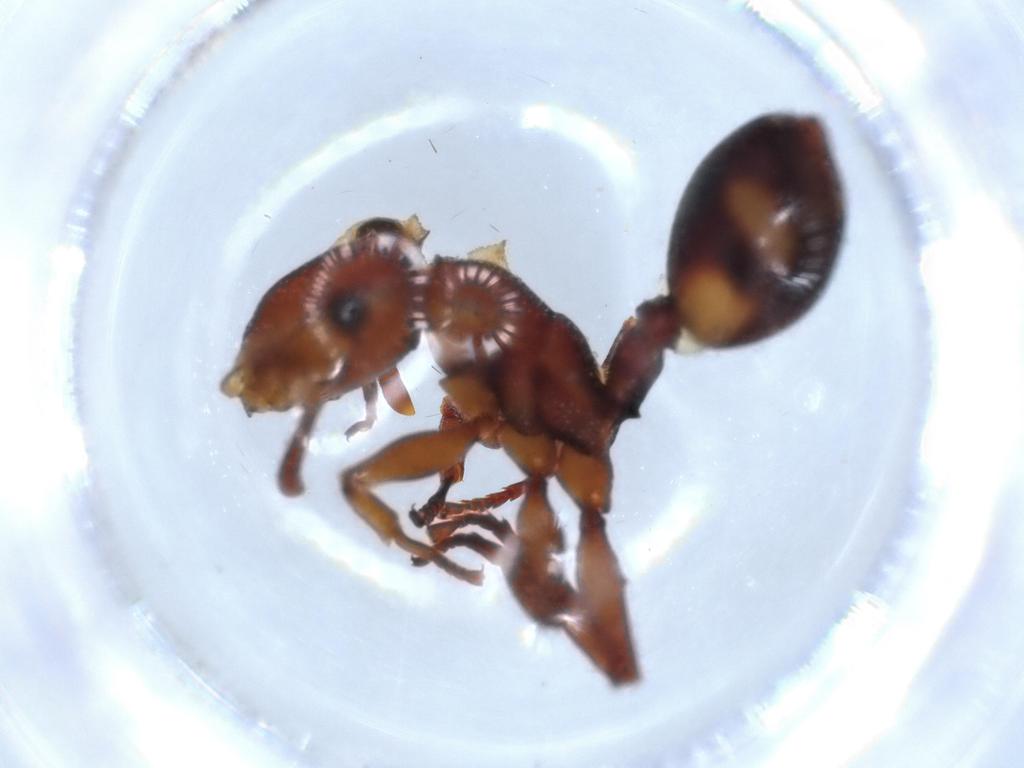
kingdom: Animalia
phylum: Arthropoda
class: Insecta
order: Hymenoptera
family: Formicidae
